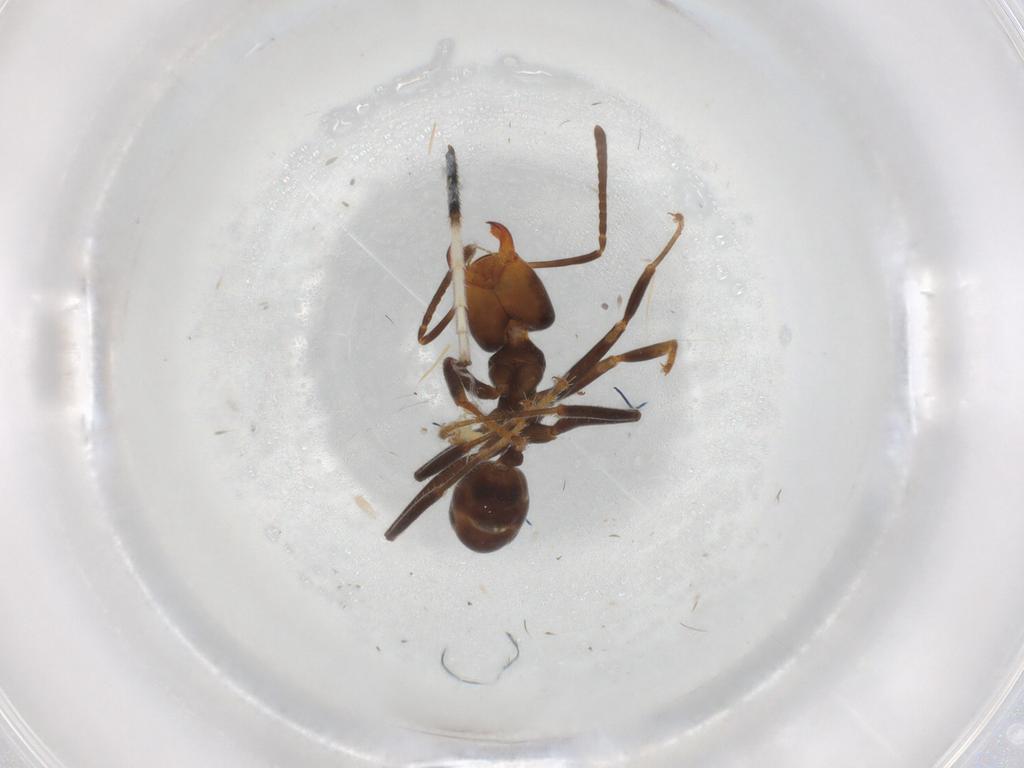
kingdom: Animalia
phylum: Arthropoda
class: Insecta
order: Hymenoptera
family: Formicidae
